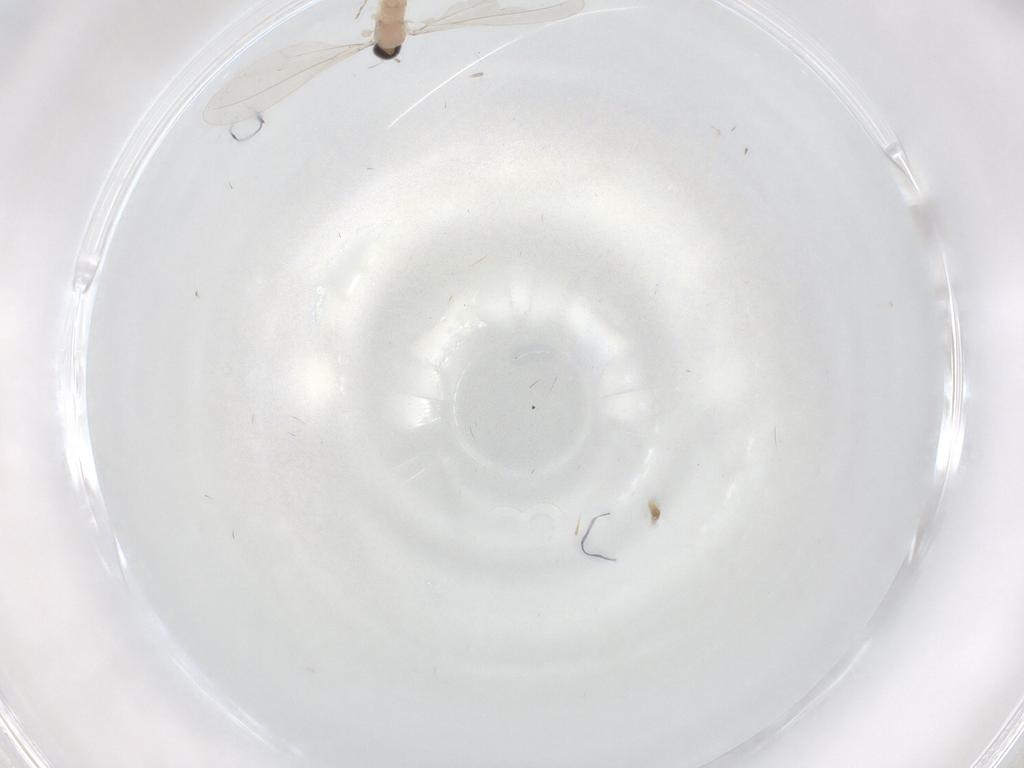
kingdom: Animalia
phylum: Arthropoda
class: Insecta
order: Diptera
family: Cecidomyiidae
